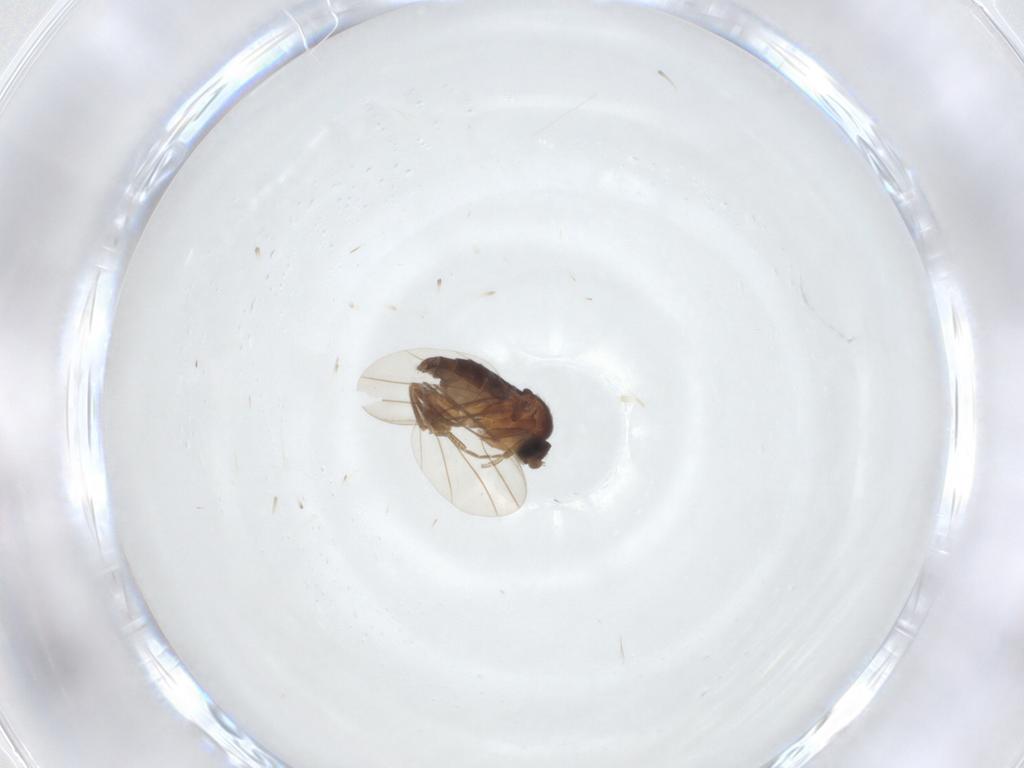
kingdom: Animalia
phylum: Arthropoda
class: Insecta
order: Diptera
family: Phoridae
